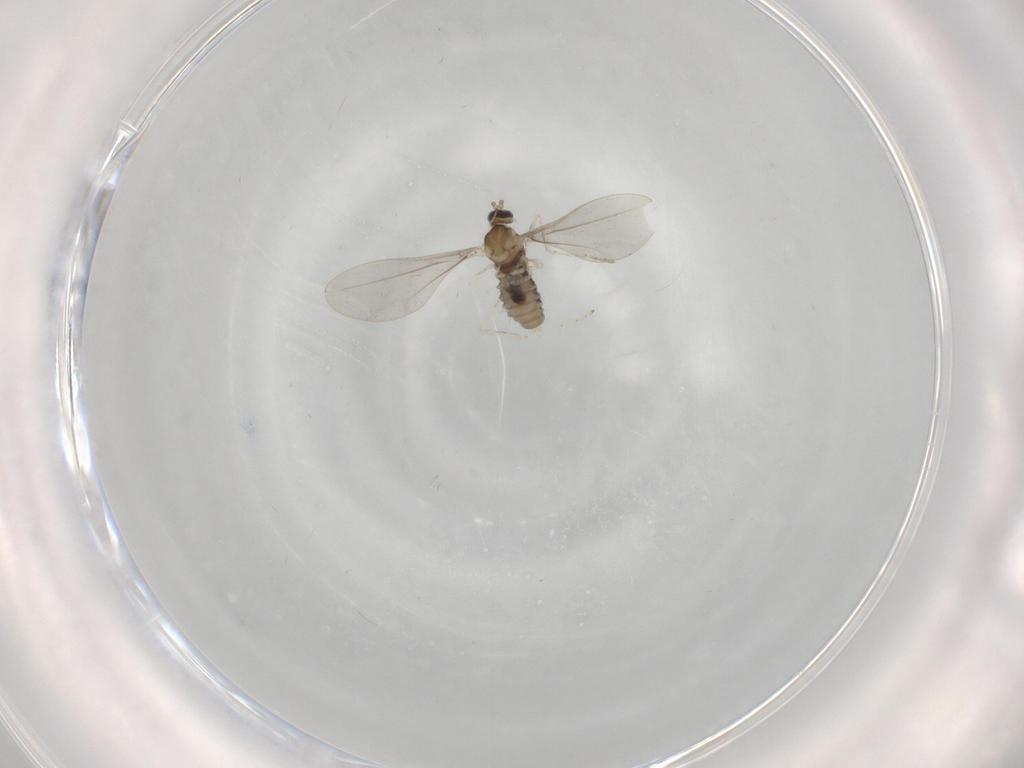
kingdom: Animalia
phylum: Arthropoda
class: Insecta
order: Diptera
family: Cecidomyiidae
